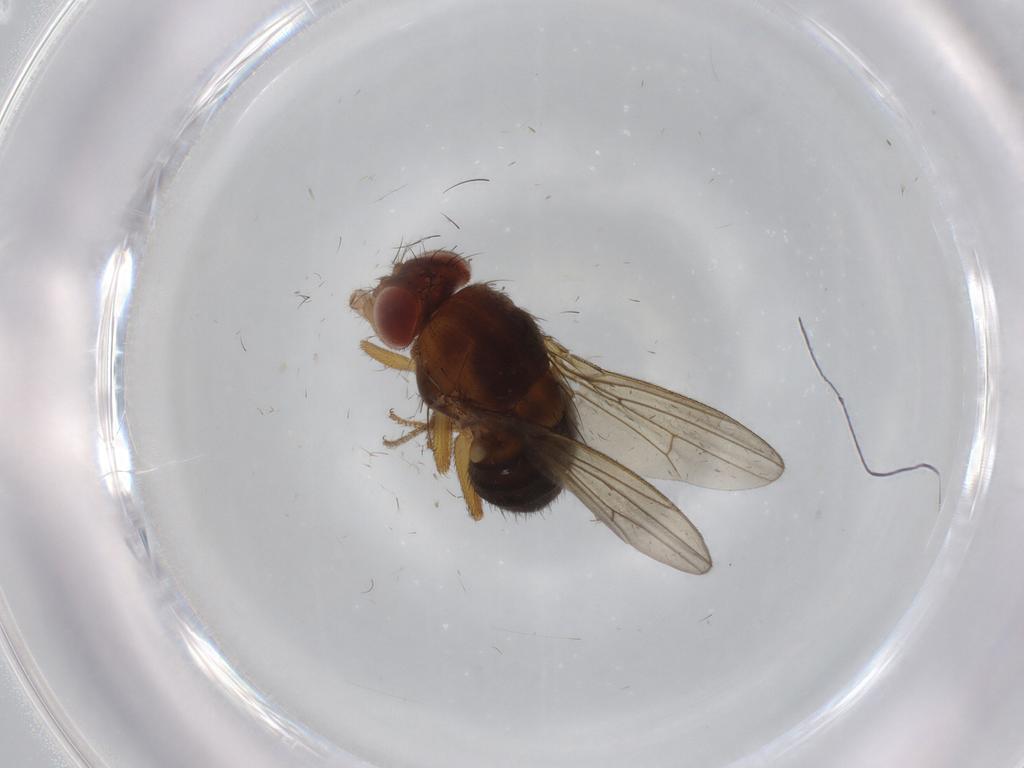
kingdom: Animalia
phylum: Arthropoda
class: Insecta
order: Diptera
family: Drosophilidae
